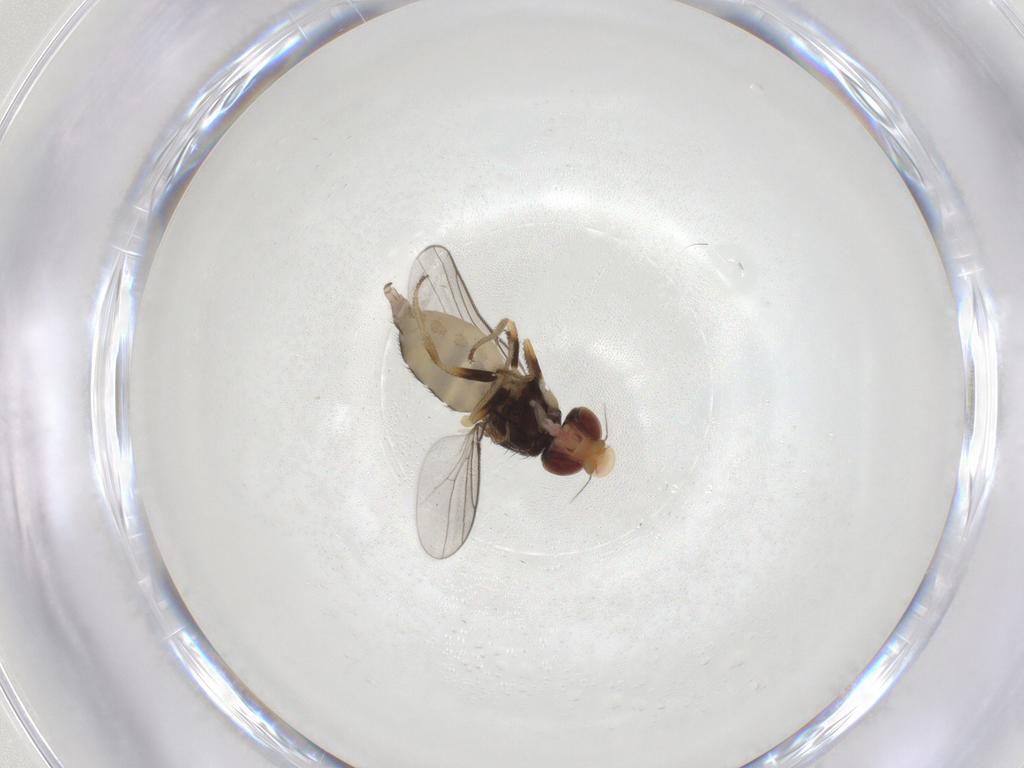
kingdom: Animalia
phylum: Arthropoda
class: Insecta
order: Diptera
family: Chloropidae
